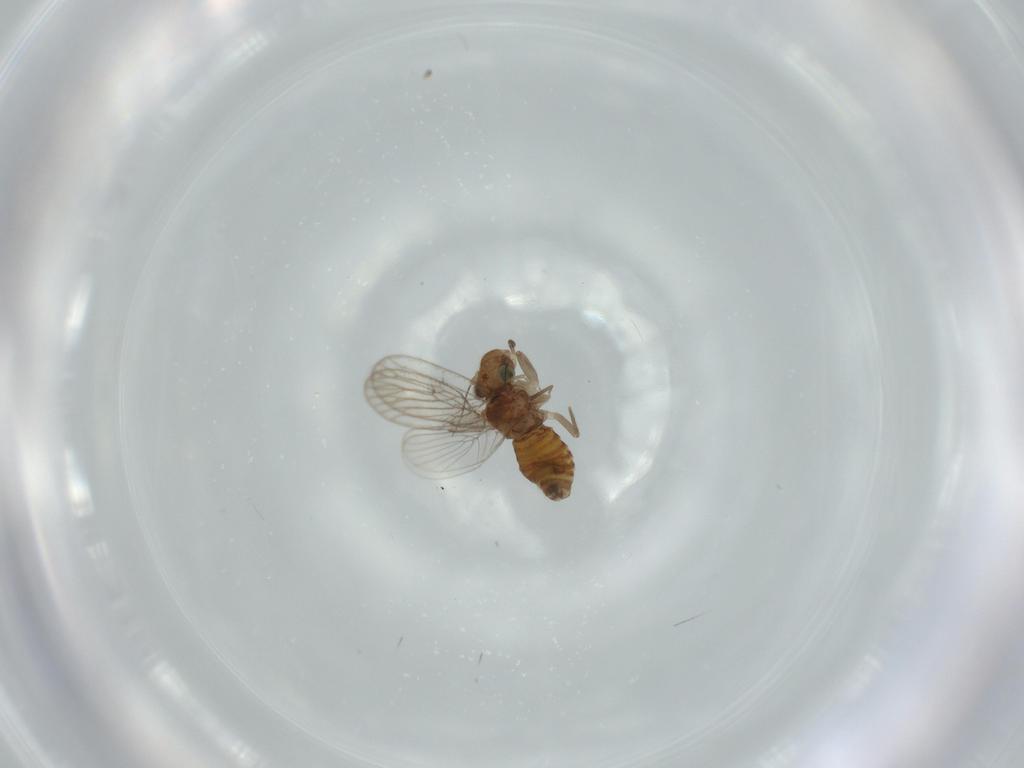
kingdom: Animalia
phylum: Arthropoda
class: Insecta
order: Psocodea
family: Psoquillidae
